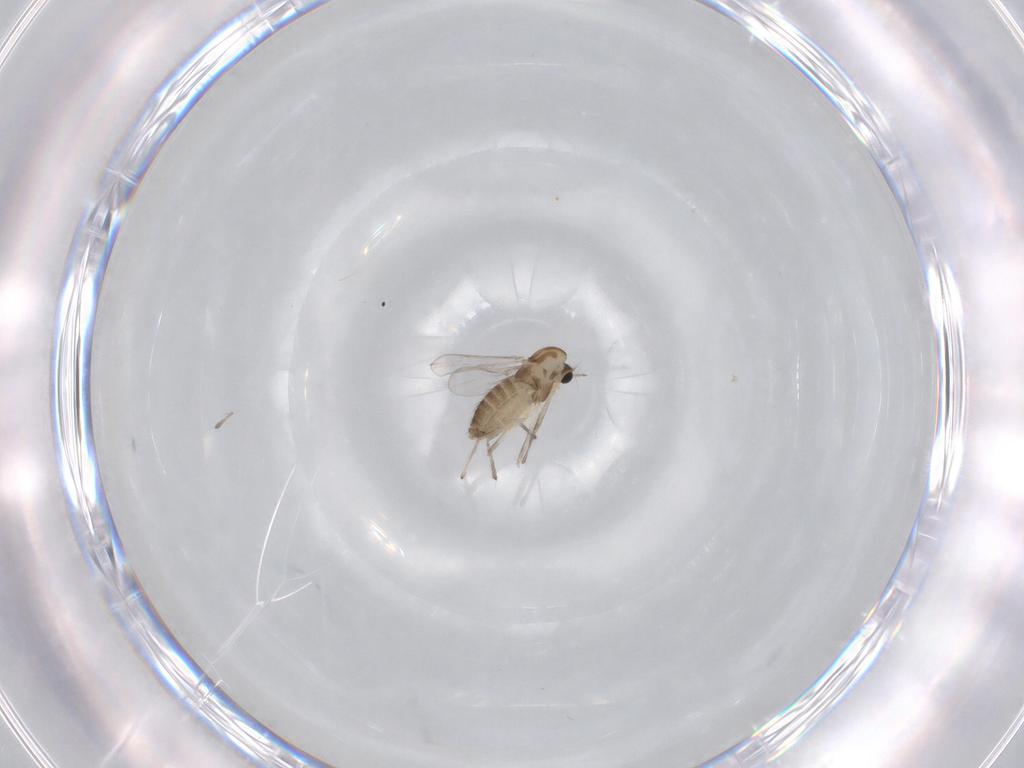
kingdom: Animalia
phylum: Arthropoda
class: Insecta
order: Diptera
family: Chironomidae
